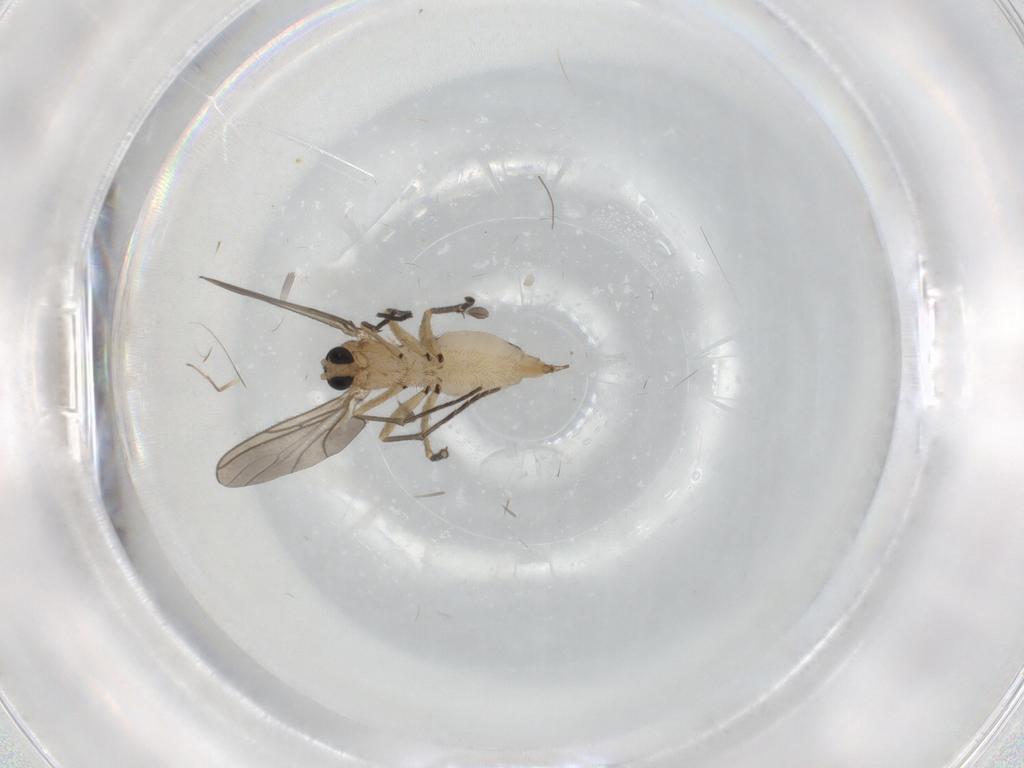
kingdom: Animalia
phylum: Arthropoda
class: Insecta
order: Diptera
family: Sciaridae
